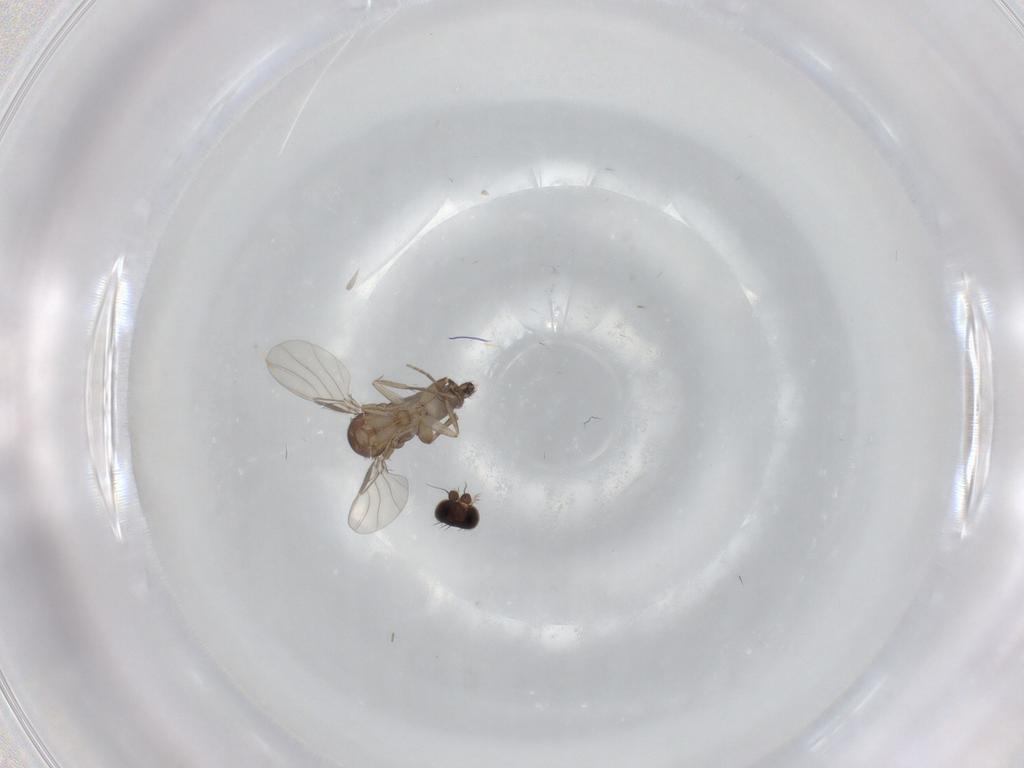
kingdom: Animalia
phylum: Arthropoda
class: Insecta
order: Diptera
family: Phoridae
